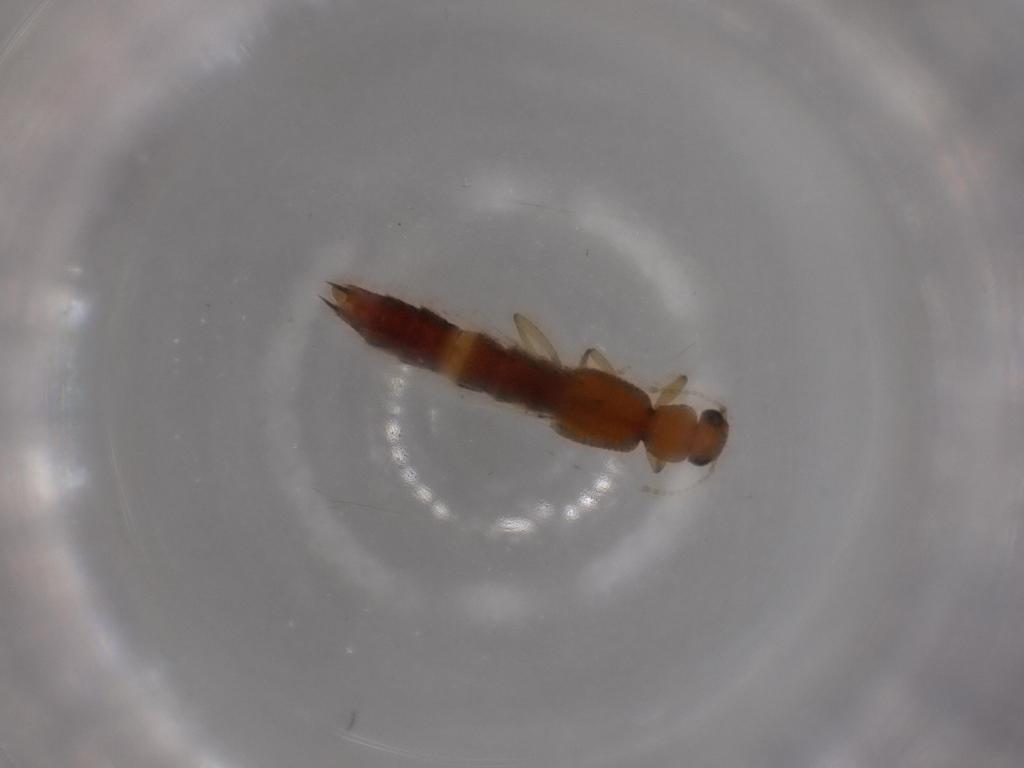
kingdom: Animalia
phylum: Arthropoda
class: Insecta
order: Coleoptera
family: Staphylinidae
